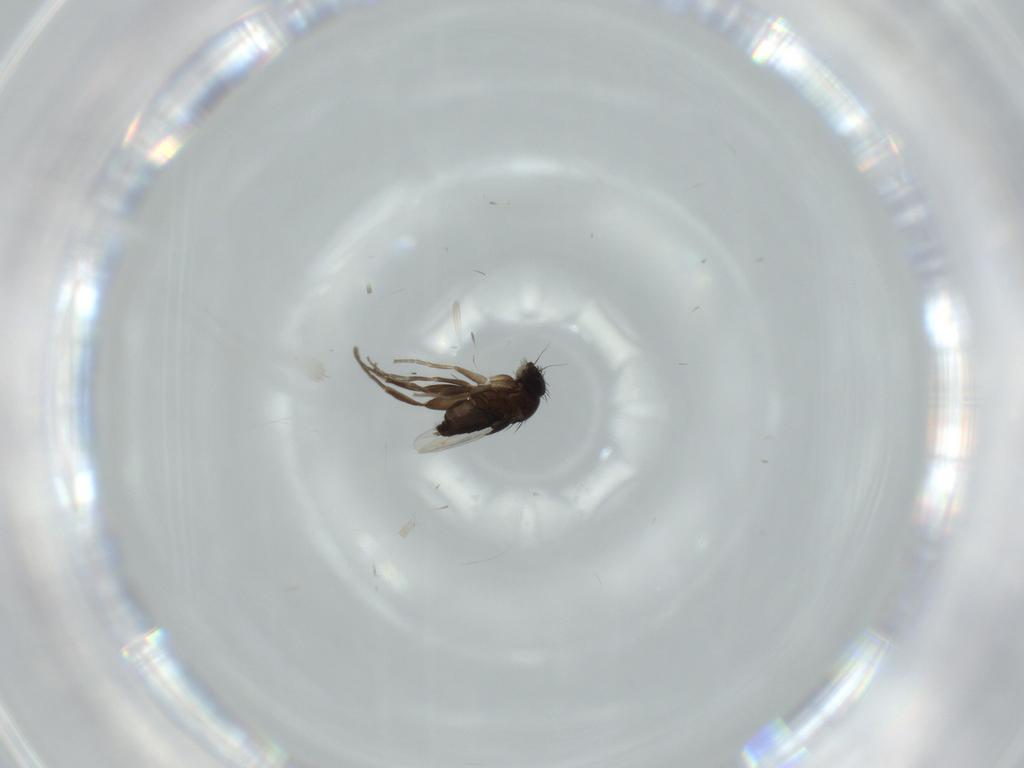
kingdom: Animalia
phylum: Arthropoda
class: Insecta
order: Diptera
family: Phoridae
